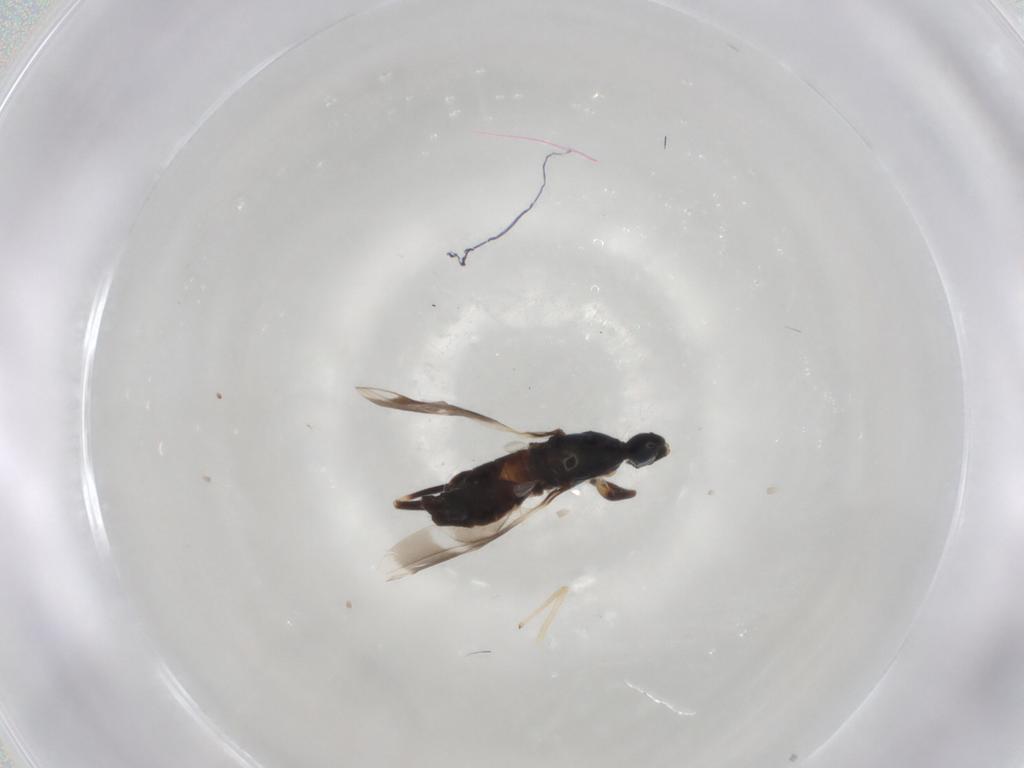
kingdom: Animalia
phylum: Arthropoda
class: Insecta
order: Diptera
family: Hybotidae
